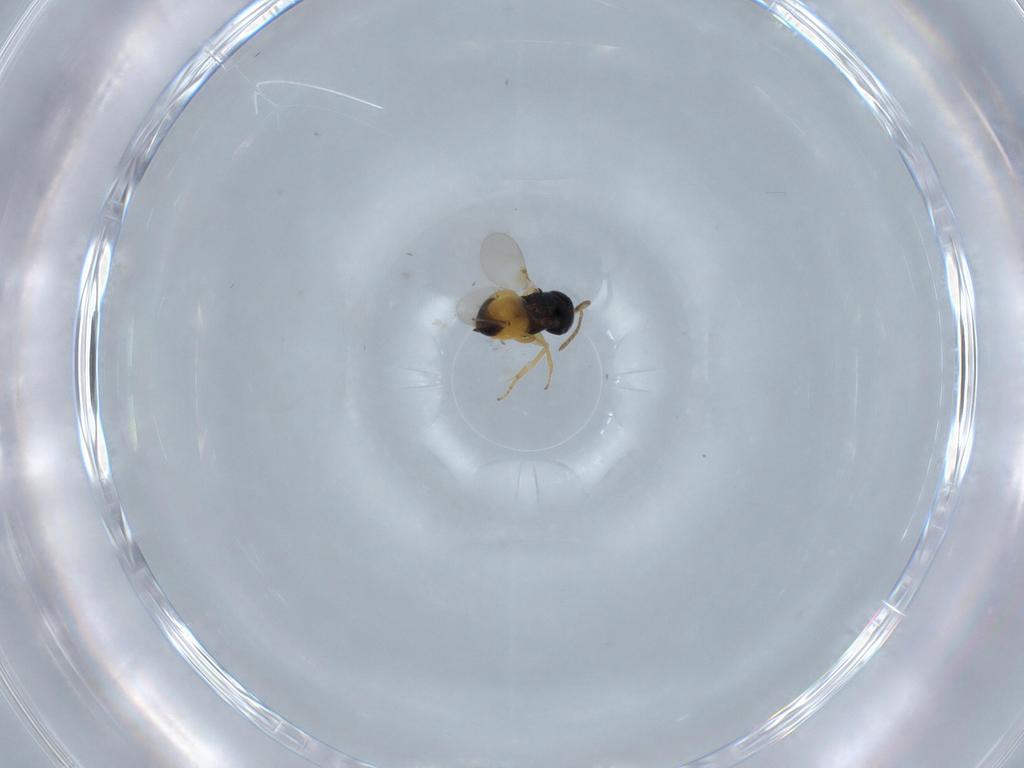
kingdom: Animalia
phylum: Arthropoda
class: Insecta
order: Hymenoptera
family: Encyrtidae
